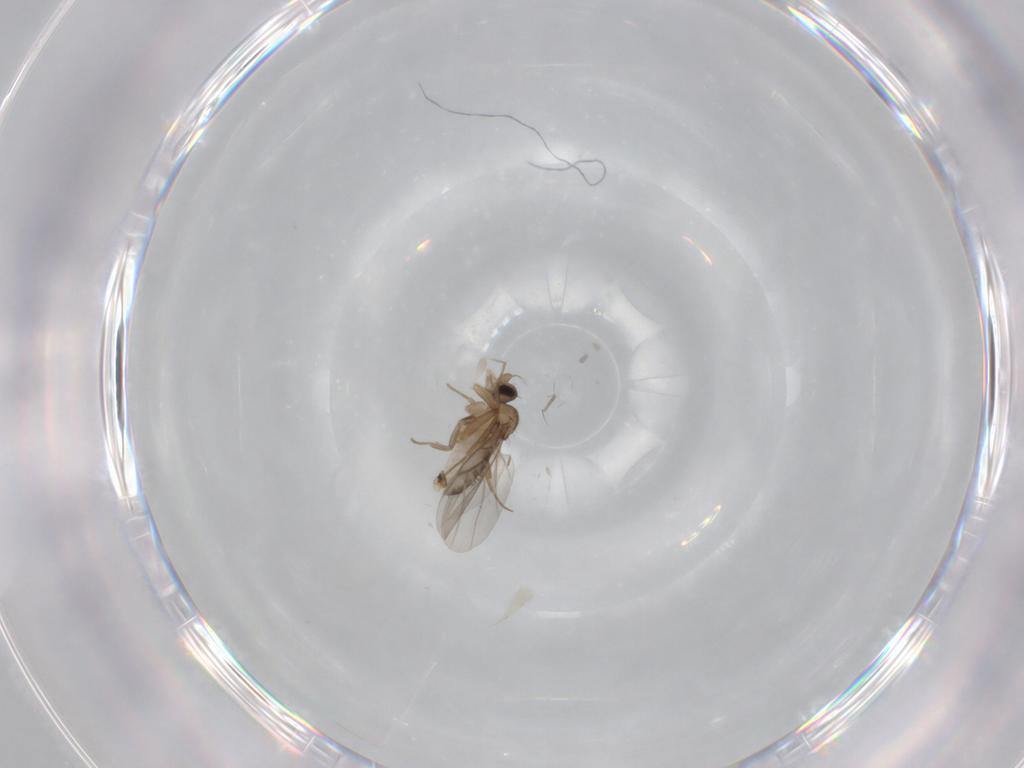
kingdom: Animalia
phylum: Arthropoda
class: Insecta
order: Diptera
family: Psychodidae
